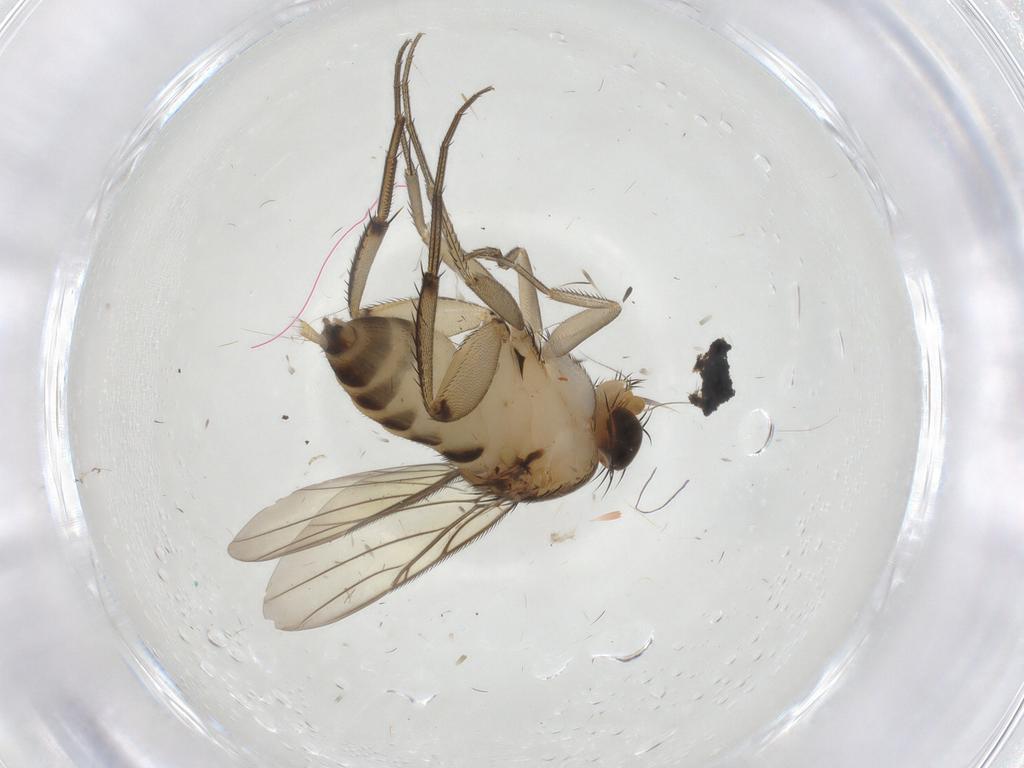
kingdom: Animalia
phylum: Arthropoda
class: Insecta
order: Diptera
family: Phoridae
